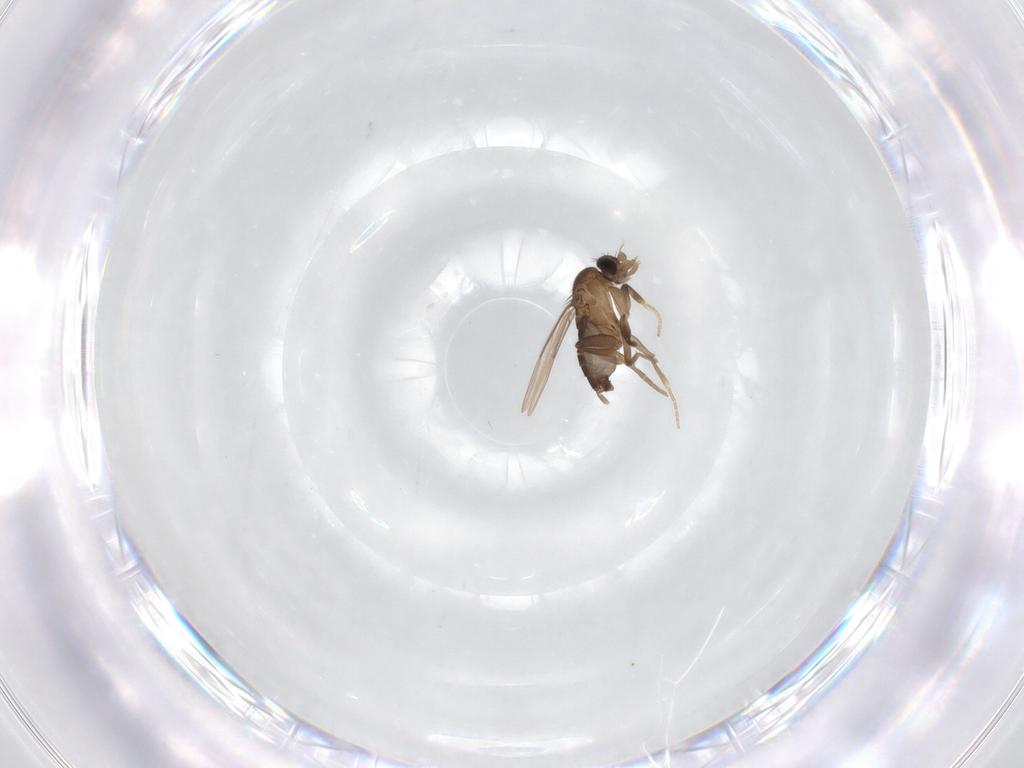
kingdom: Animalia
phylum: Arthropoda
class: Insecta
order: Diptera
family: Phoridae
